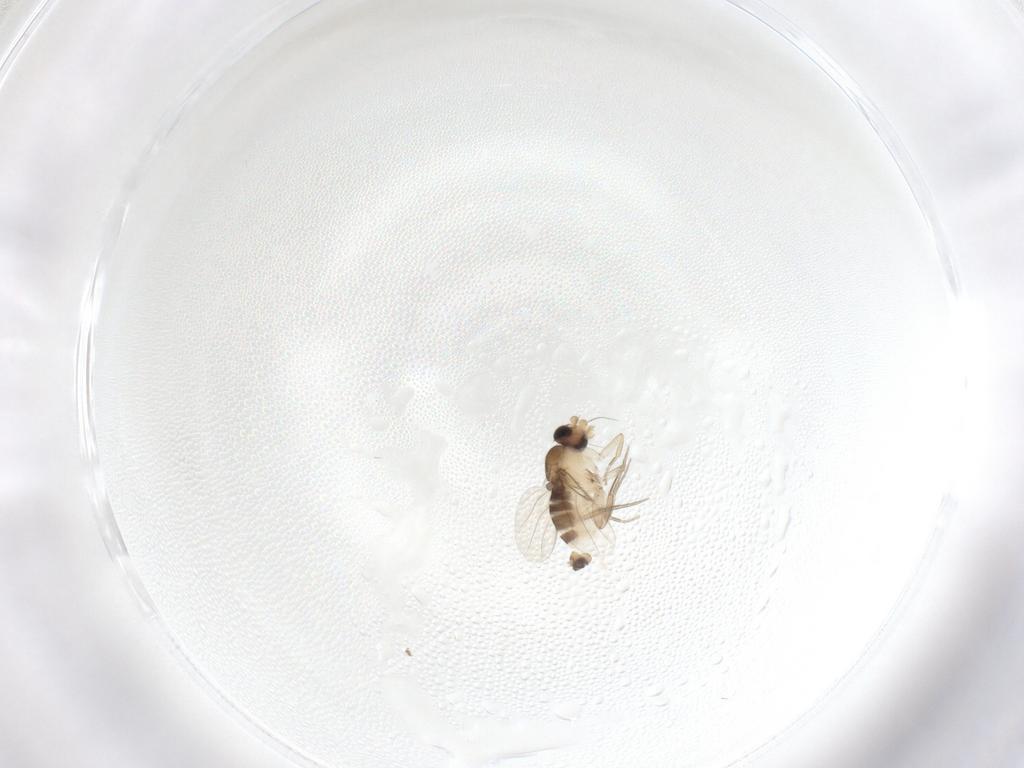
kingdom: Animalia
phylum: Arthropoda
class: Insecta
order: Diptera
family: Phoridae
